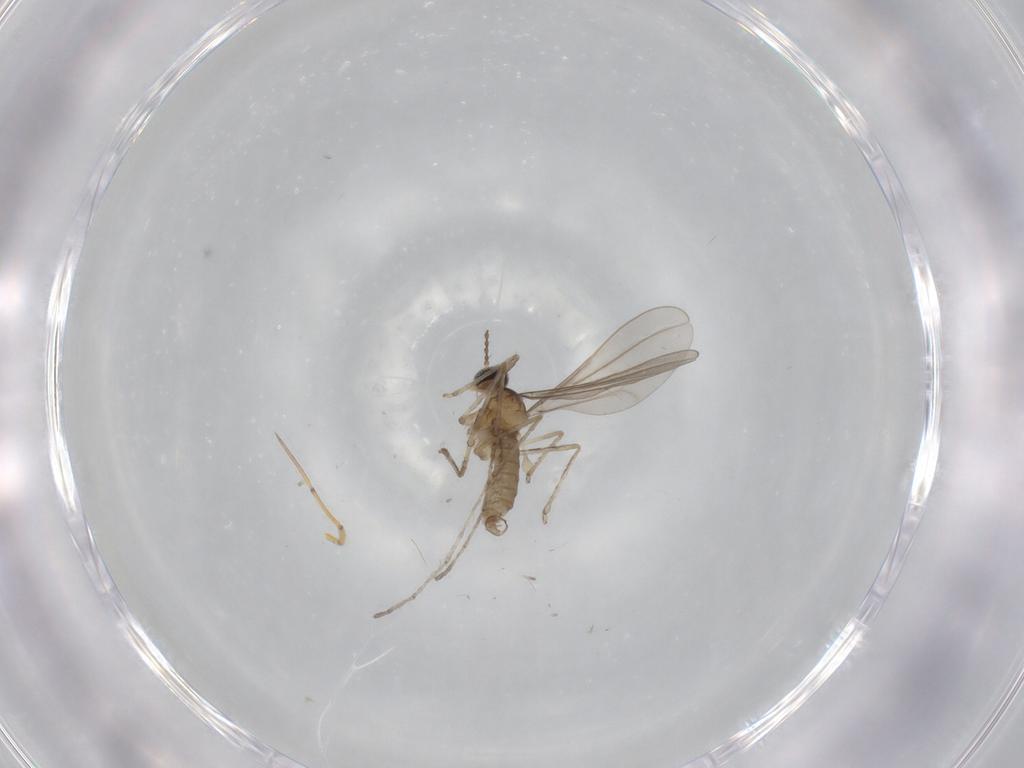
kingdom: Animalia
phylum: Arthropoda
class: Insecta
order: Diptera
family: Cecidomyiidae
